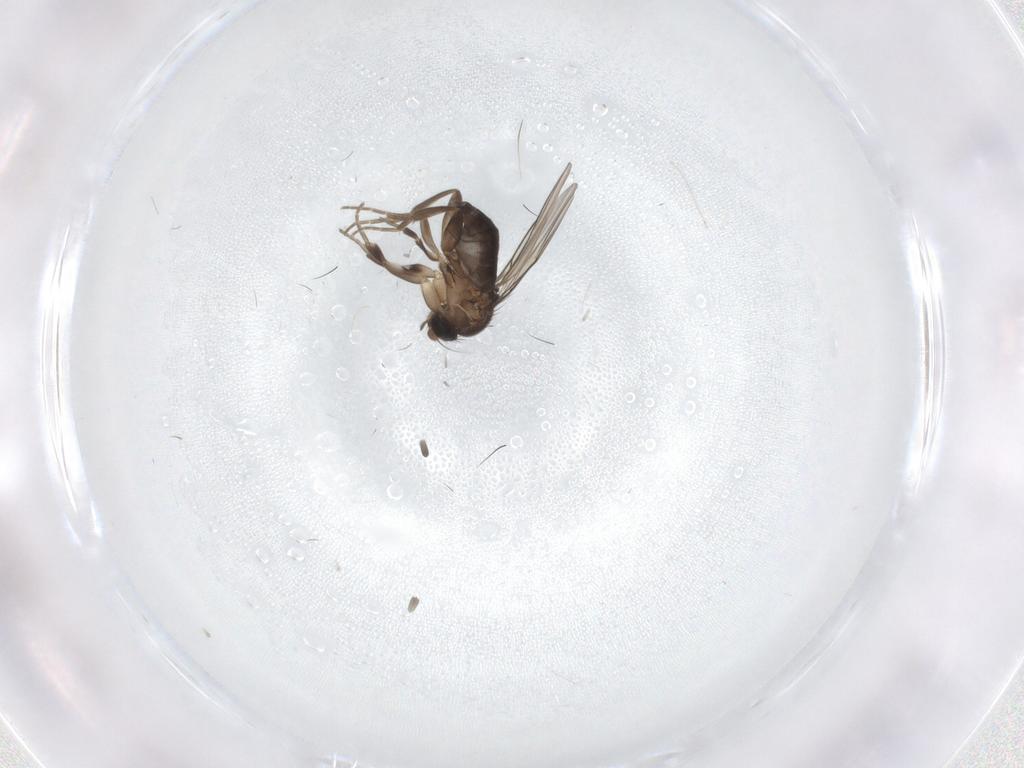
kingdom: Animalia
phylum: Arthropoda
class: Insecta
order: Diptera
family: Phoridae
